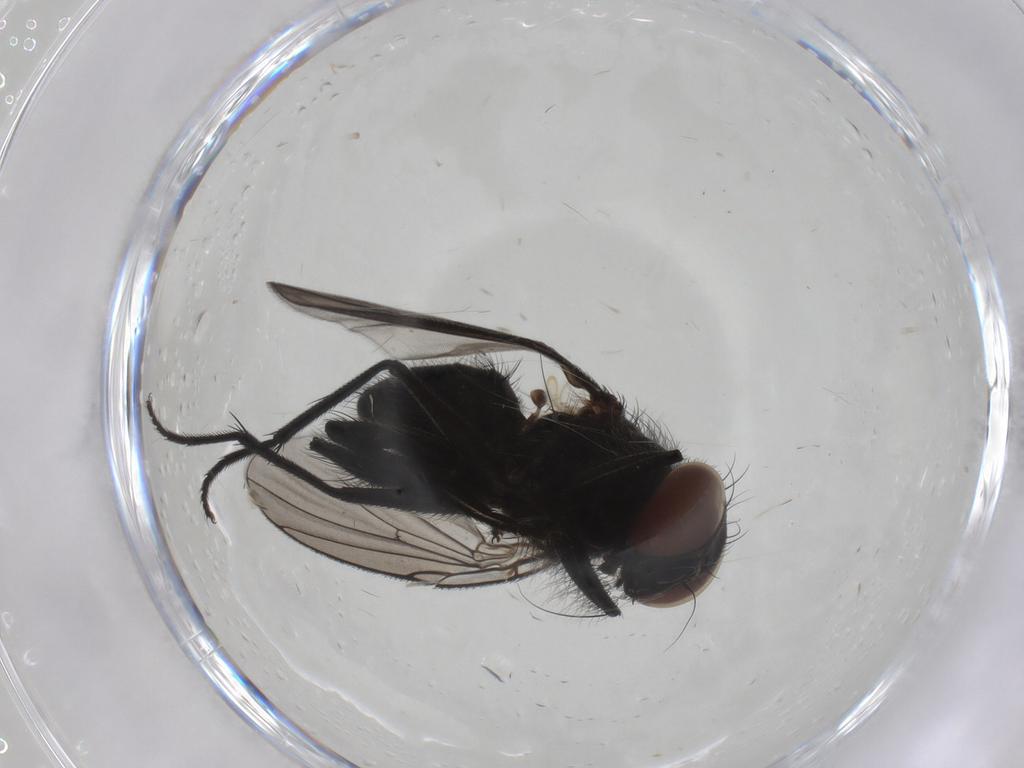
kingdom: Animalia
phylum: Arthropoda
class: Insecta
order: Diptera
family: Muscidae
